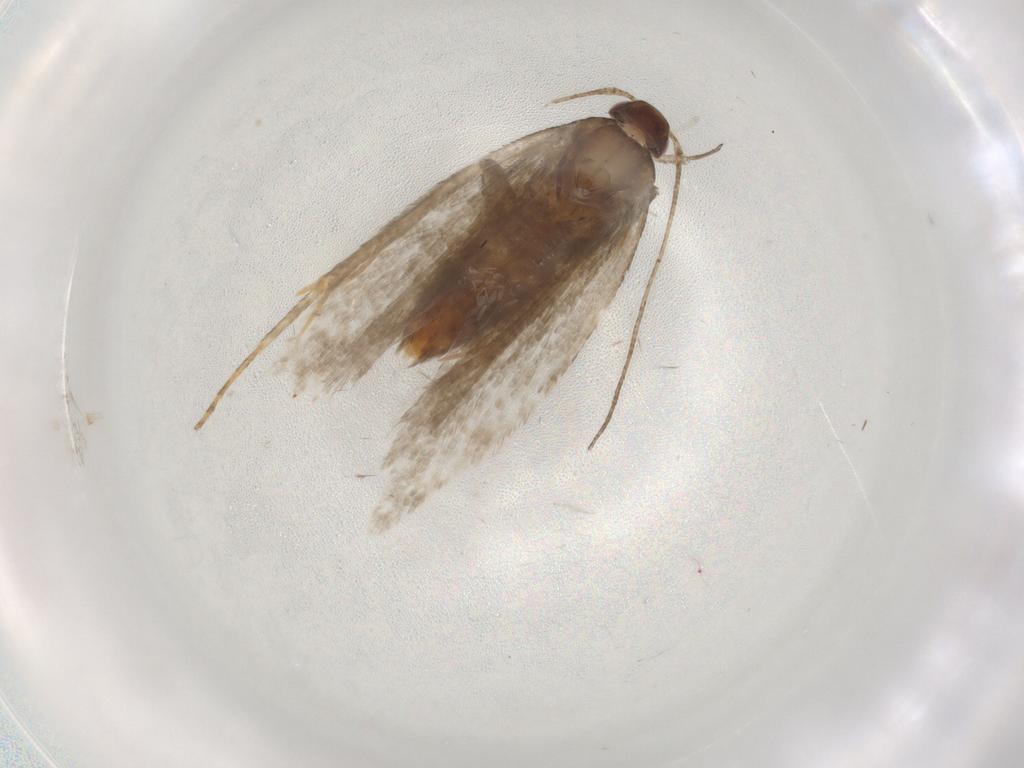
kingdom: Animalia
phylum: Arthropoda
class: Insecta
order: Lepidoptera
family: Gelechiidae
